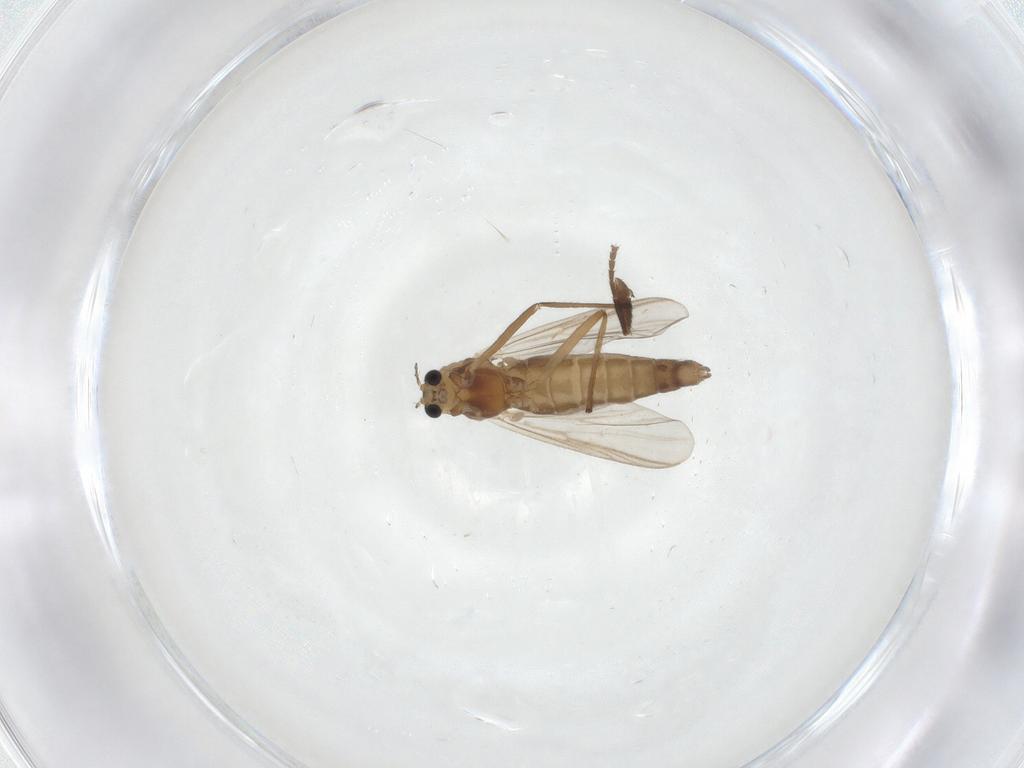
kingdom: Animalia
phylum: Arthropoda
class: Insecta
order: Diptera
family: Chironomidae
